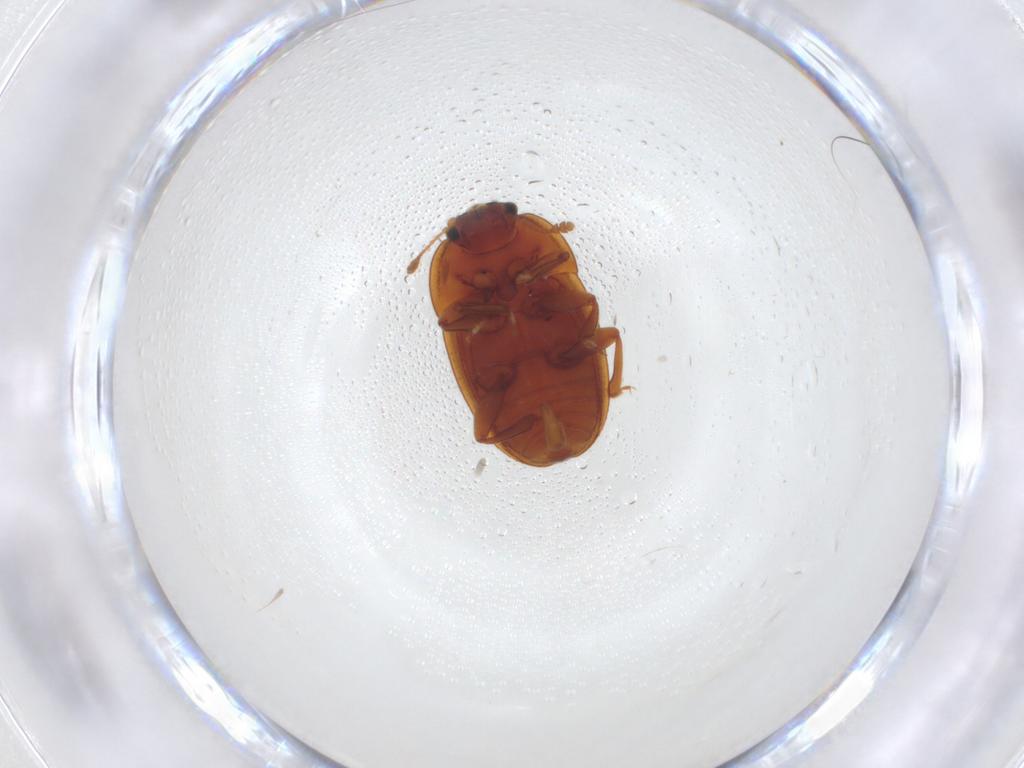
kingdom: Animalia
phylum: Arthropoda
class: Insecta
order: Coleoptera
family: Nitidulidae
